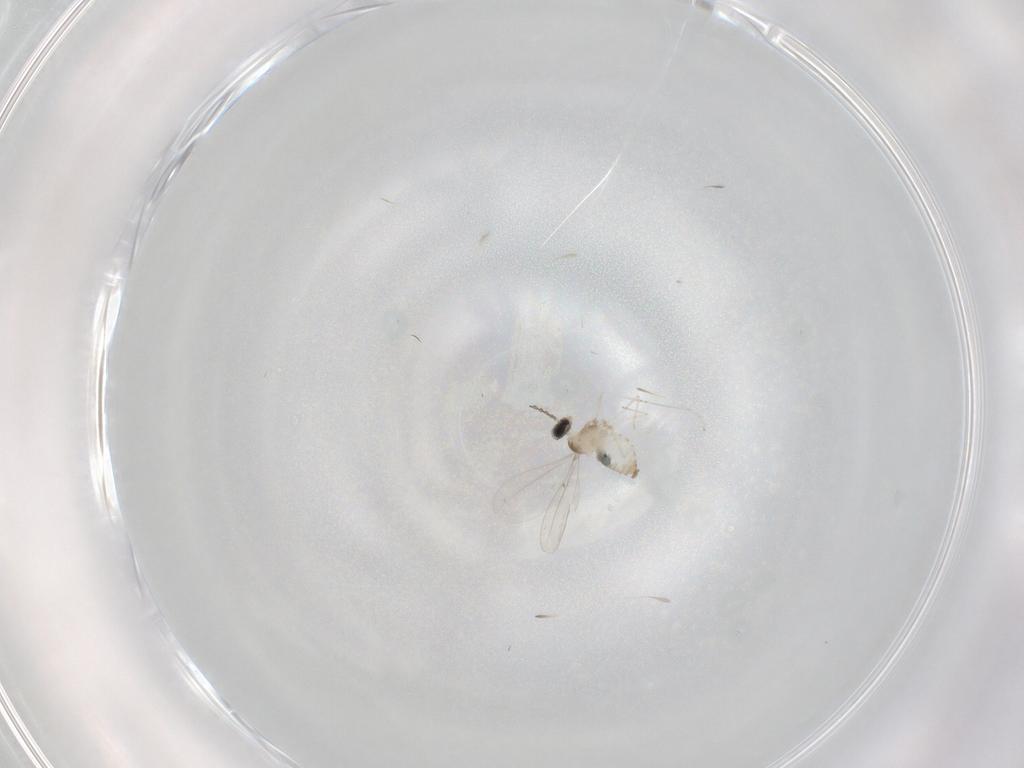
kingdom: Animalia
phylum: Arthropoda
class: Insecta
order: Diptera
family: Cecidomyiidae
